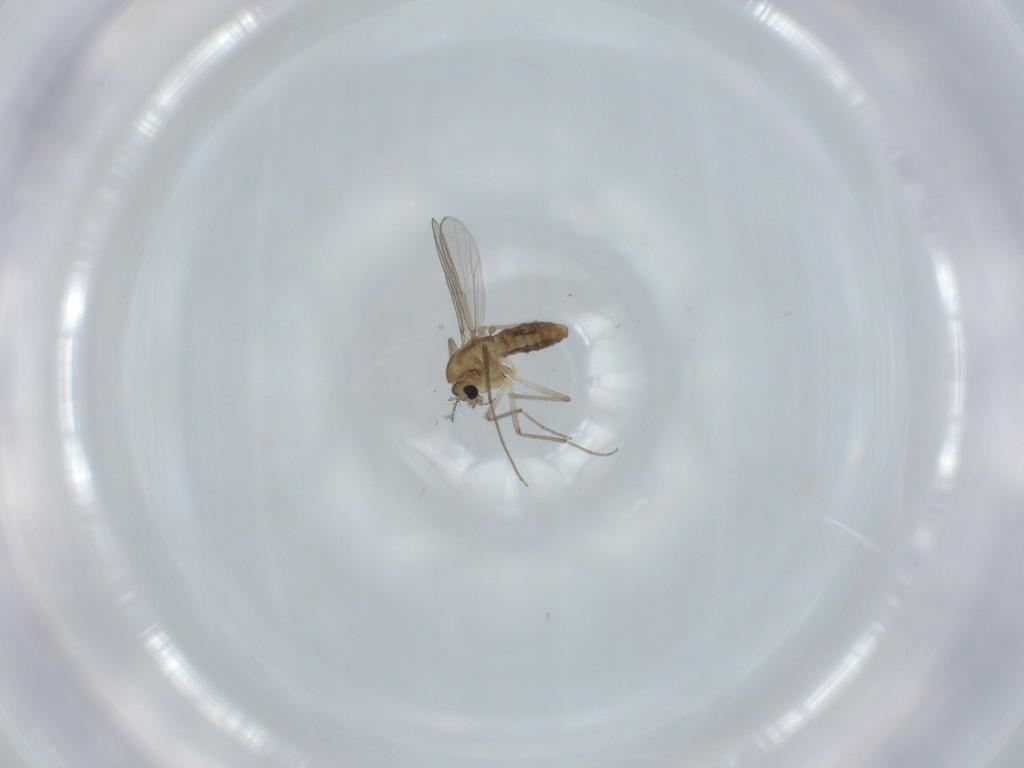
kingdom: Animalia
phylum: Arthropoda
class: Insecta
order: Diptera
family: Chironomidae
